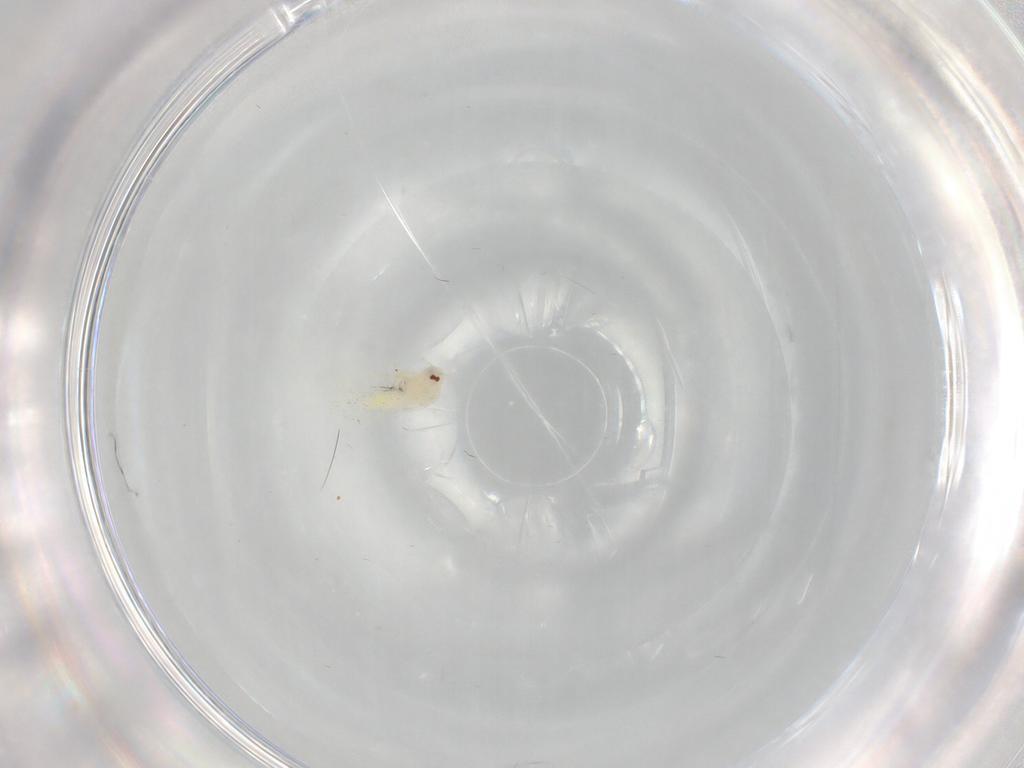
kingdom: Animalia
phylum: Arthropoda
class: Insecta
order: Hemiptera
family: Aleyrodidae
